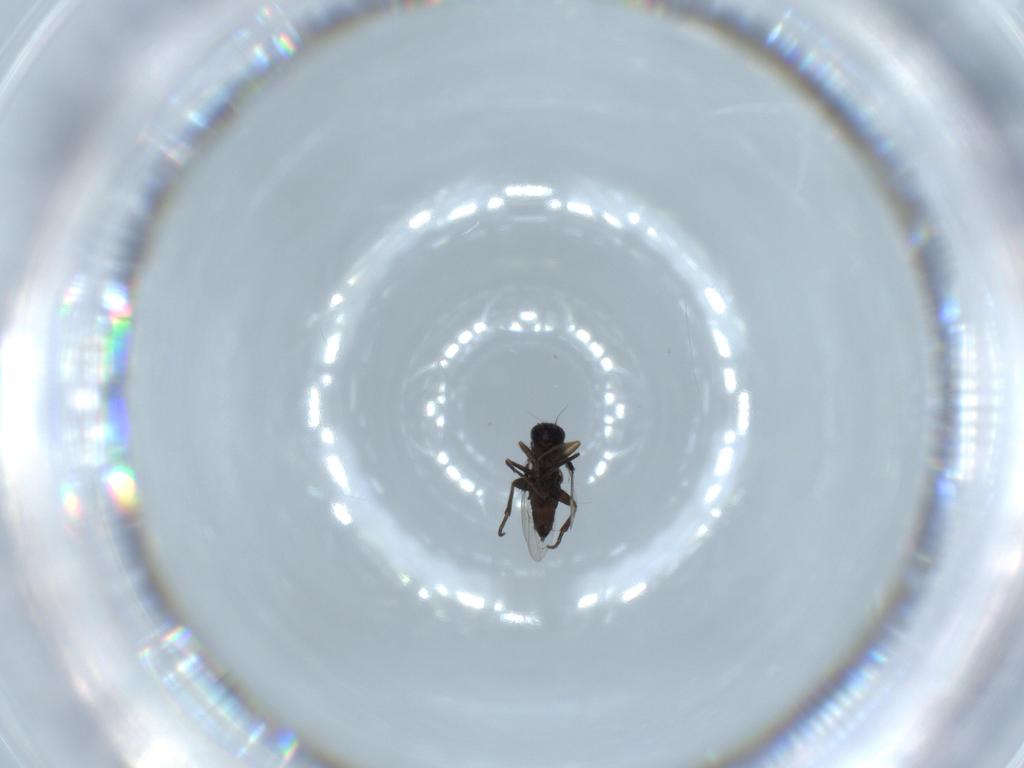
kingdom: Animalia
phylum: Arthropoda
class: Insecta
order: Diptera
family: Phoridae
